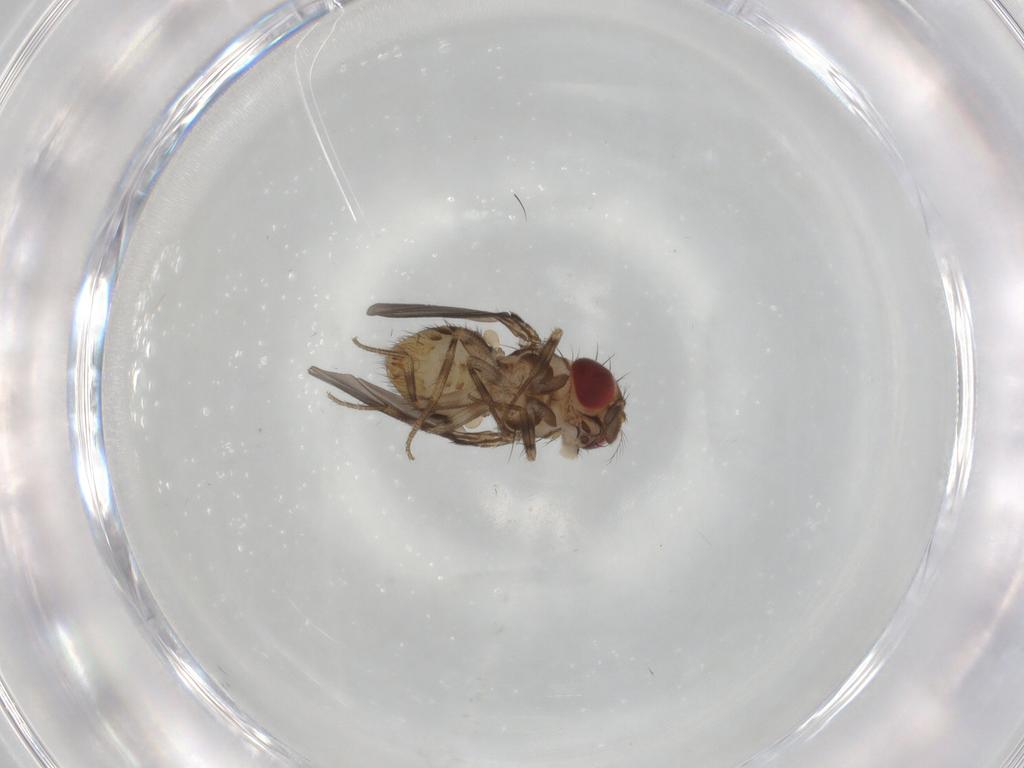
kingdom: Animalia
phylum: Arthropoda
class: Insecta
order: Diptera
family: Drosophilidae
